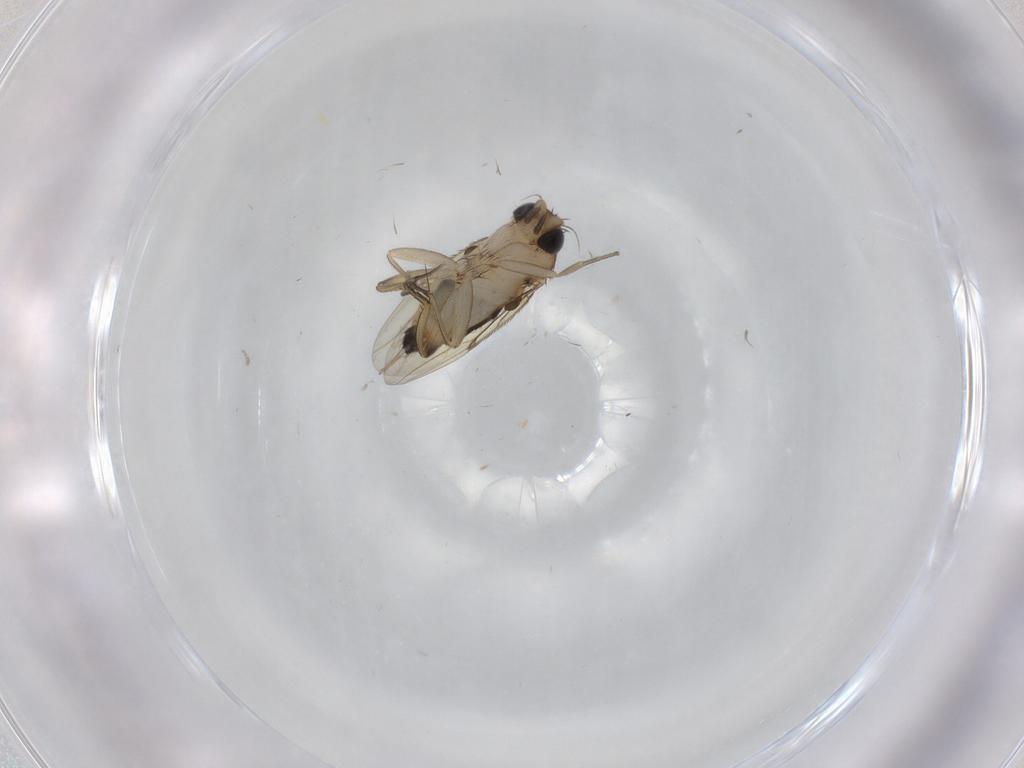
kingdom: Animalia
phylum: Arthropoda
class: Insecta
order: Diptera
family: Phoridae
